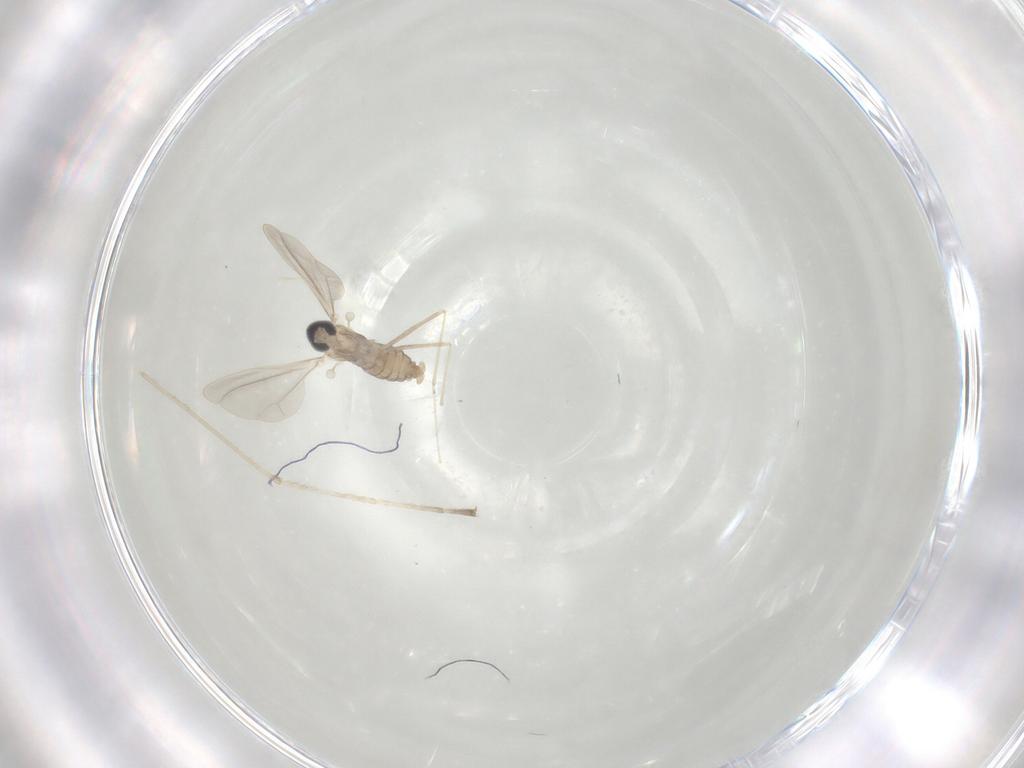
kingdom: Animalia
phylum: Arthropoda
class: Insecta
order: Diptera
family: Cecidomyiidae
